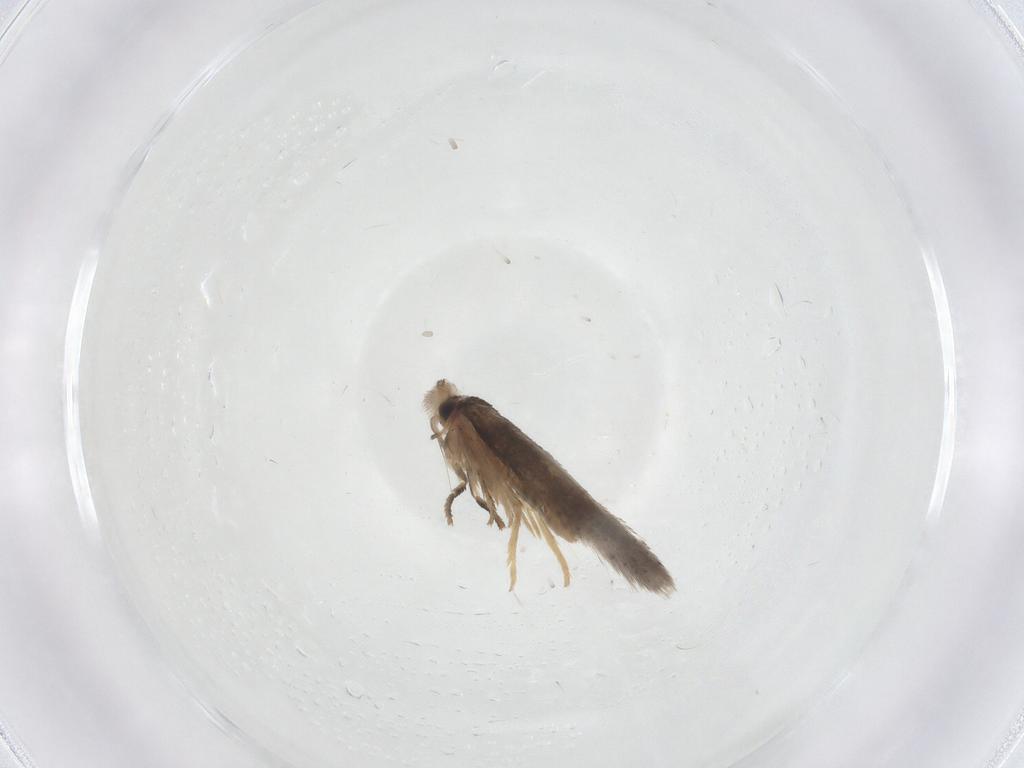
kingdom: Animalia
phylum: Arthropoda
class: Insecta
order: Lepidoptera
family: Nepticulidae
